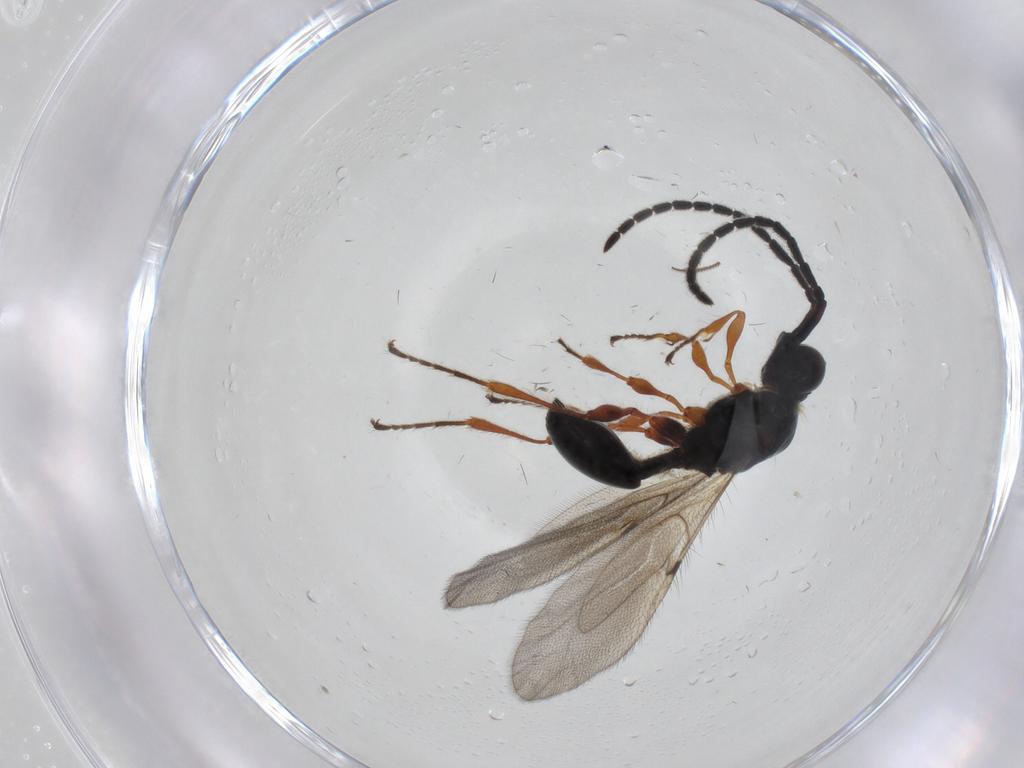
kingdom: Animalia
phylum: Arthropoda
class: Insecta
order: Hymenoptera
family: Diapriidae
